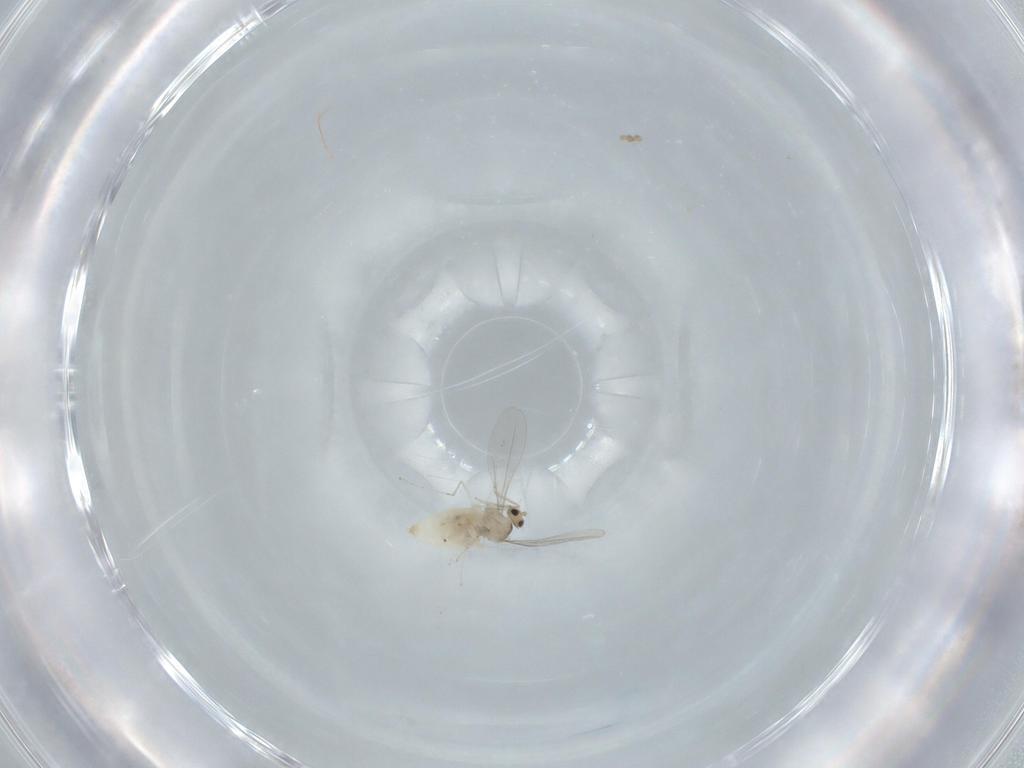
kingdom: Animalia
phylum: Arthropoda
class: Insecta
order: Diptera
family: Cecidomyiidae
